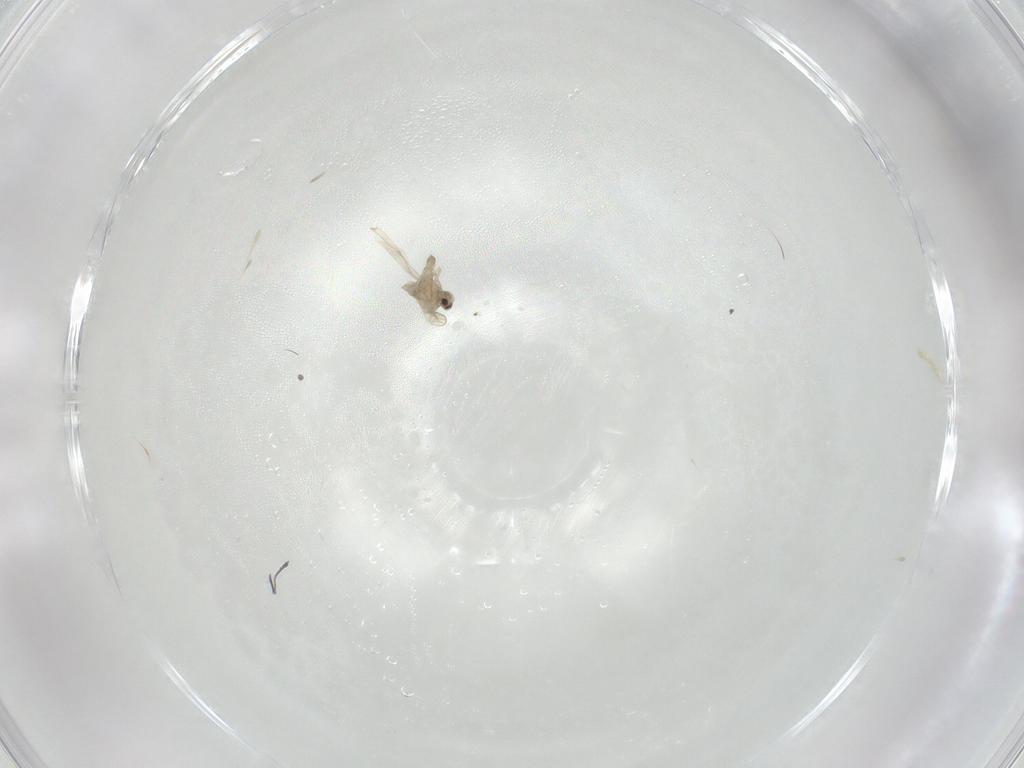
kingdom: Animalia
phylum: Arthropoda
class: Insecta
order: Diptera
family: Cecidomyiidae
